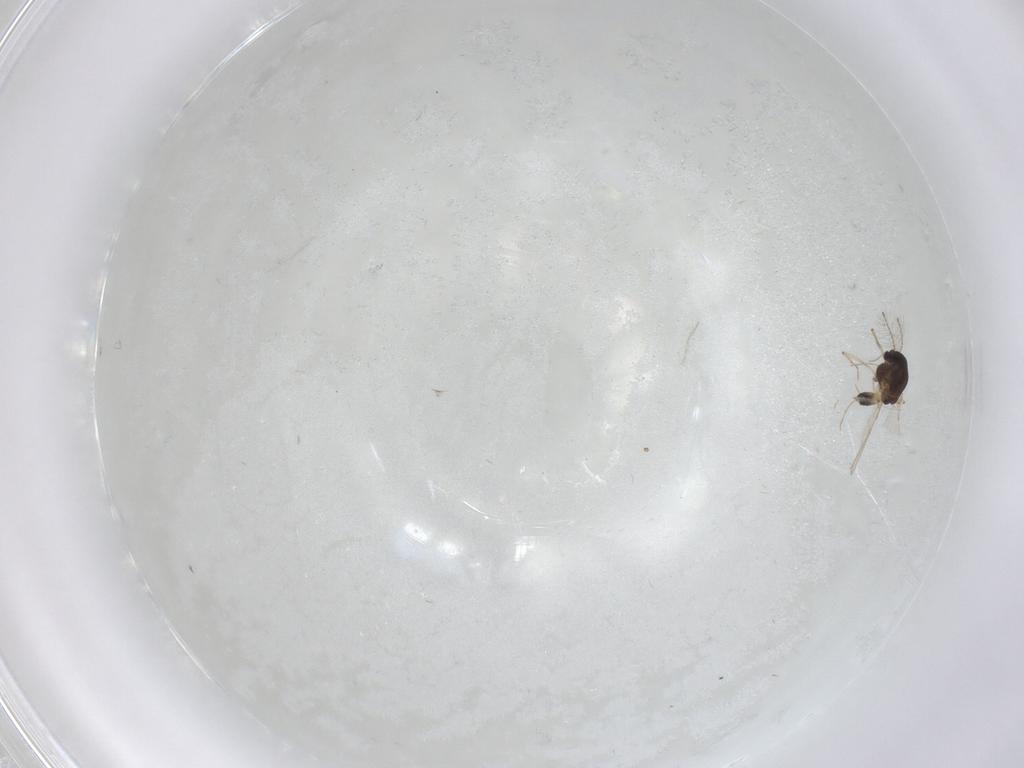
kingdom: Animalia
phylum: Arthropoda
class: Insecta
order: Diptera
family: Chironomidae
